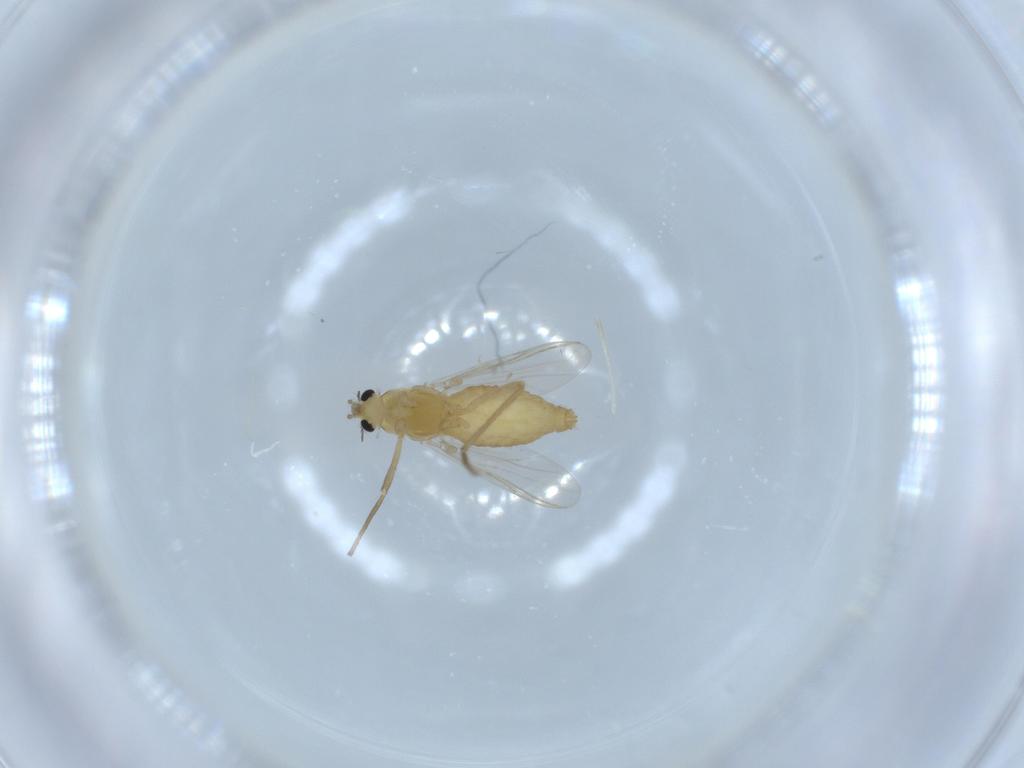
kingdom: Animalia
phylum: Arthropoda
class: Insecta
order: Diptera
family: Chironomidae
